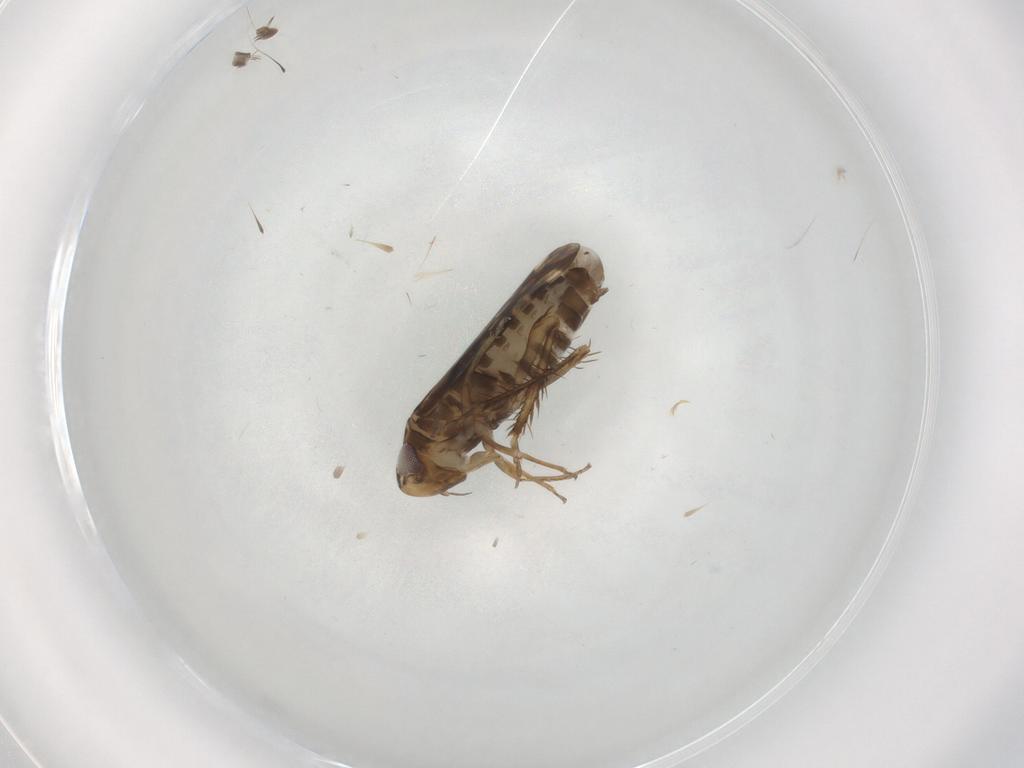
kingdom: Animalia
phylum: Arthropoda
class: Insecta
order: Hemiptera
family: Cicadellidae
